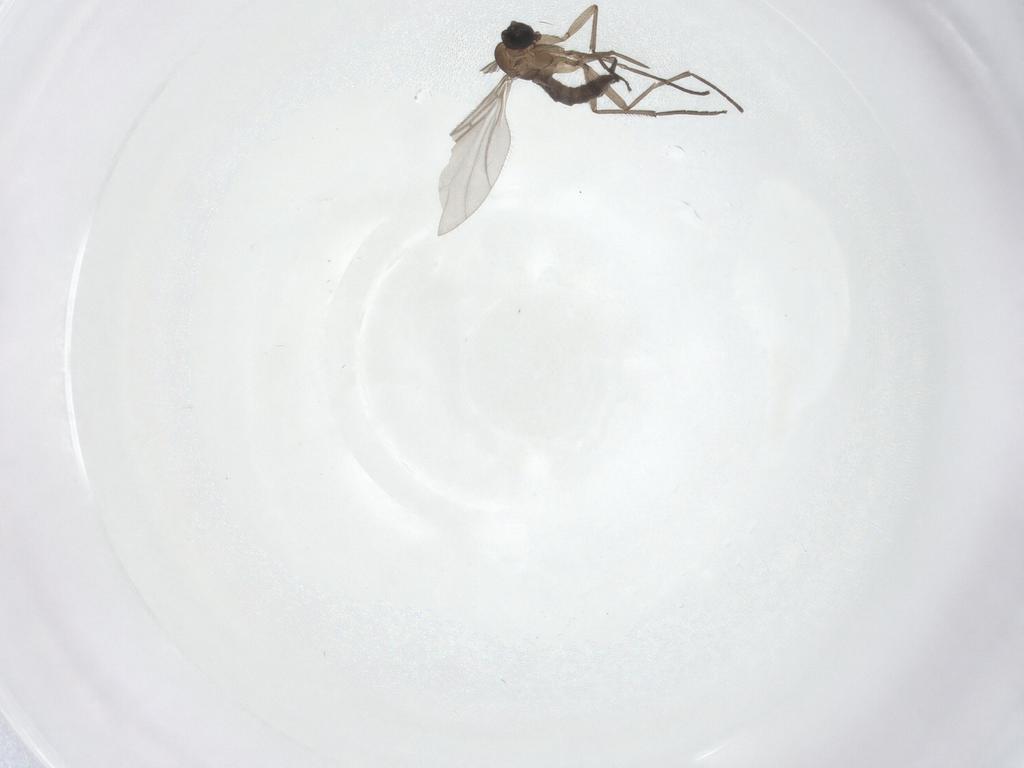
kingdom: Animalia
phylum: Arthropoda
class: Insecta
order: Diptera
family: Sciaridae
